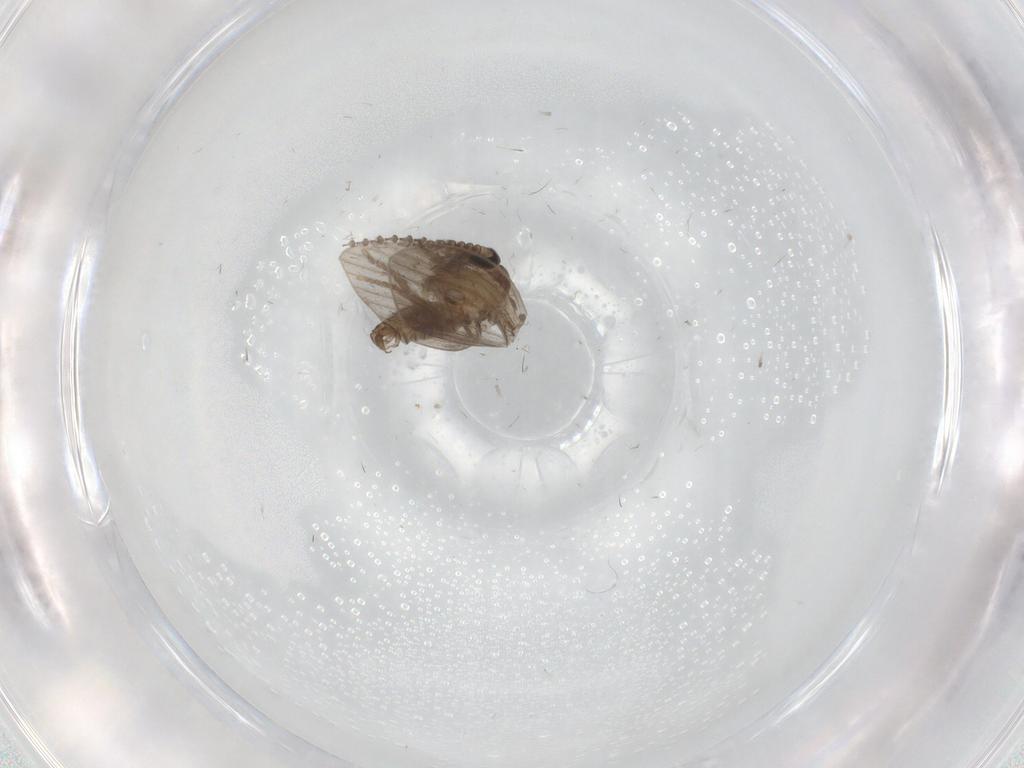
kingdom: Animalia
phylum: Arthropoda
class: Insecta
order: Diptera
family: Psychodidae
